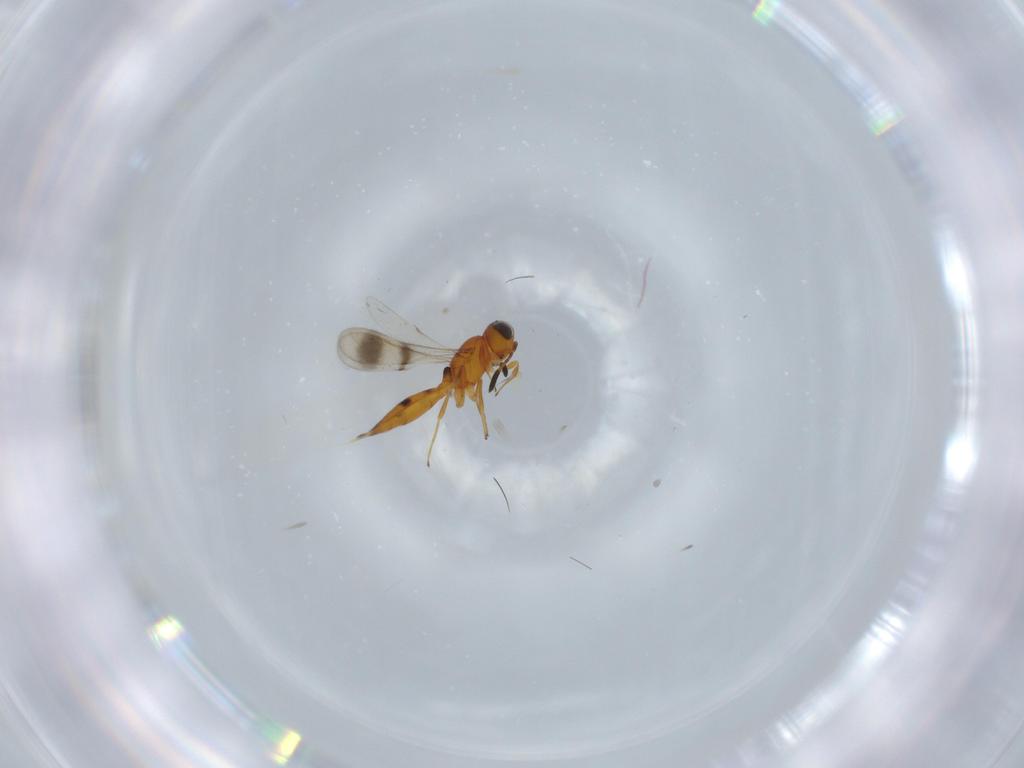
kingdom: Animalia
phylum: Arthropoda
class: Insecta
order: Hymenoptera
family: Scelionidae
